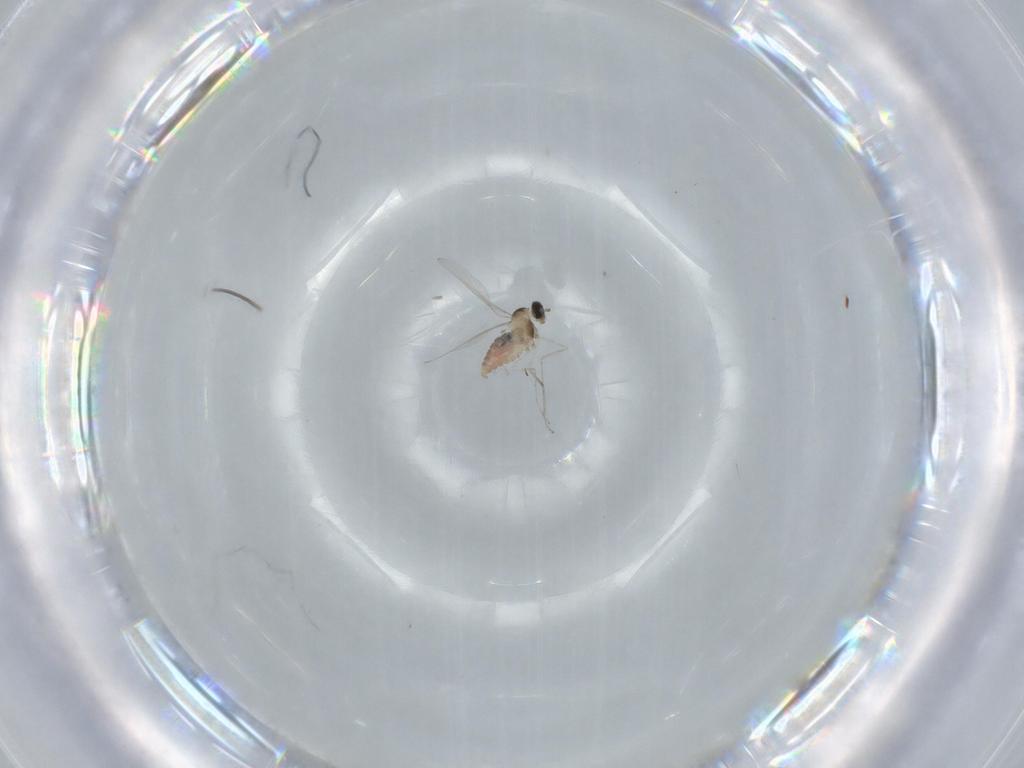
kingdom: Animalia
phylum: Arthropoda
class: Insecta
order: Diptera
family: Cecidomyiidae
